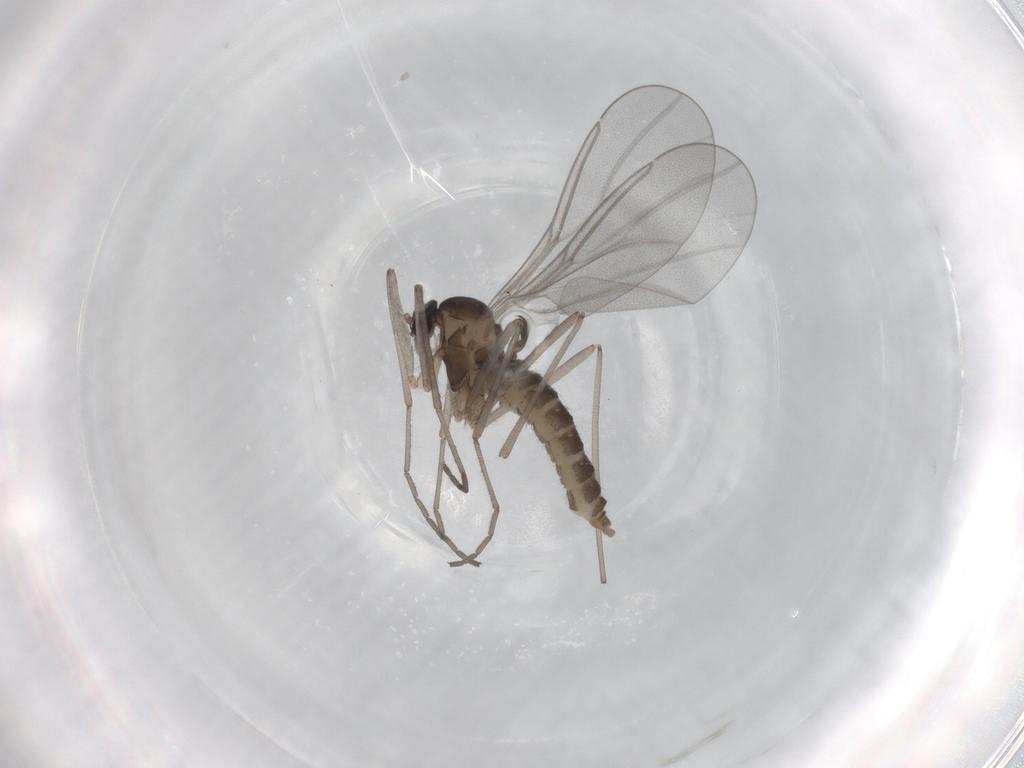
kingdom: Animalia
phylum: Arthropoda
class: Insecta
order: Diptera
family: Cecidomyiidae
